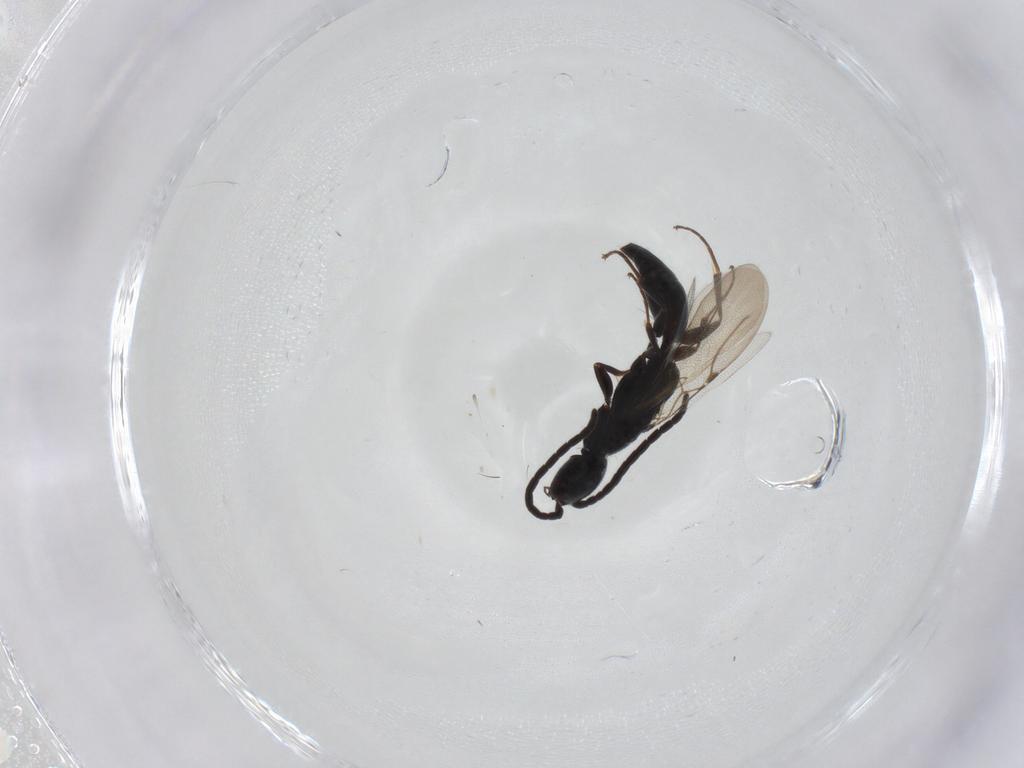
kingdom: Animalia
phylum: Arthropoda
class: Insecta
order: Hymenoptera
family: Bethylidae
